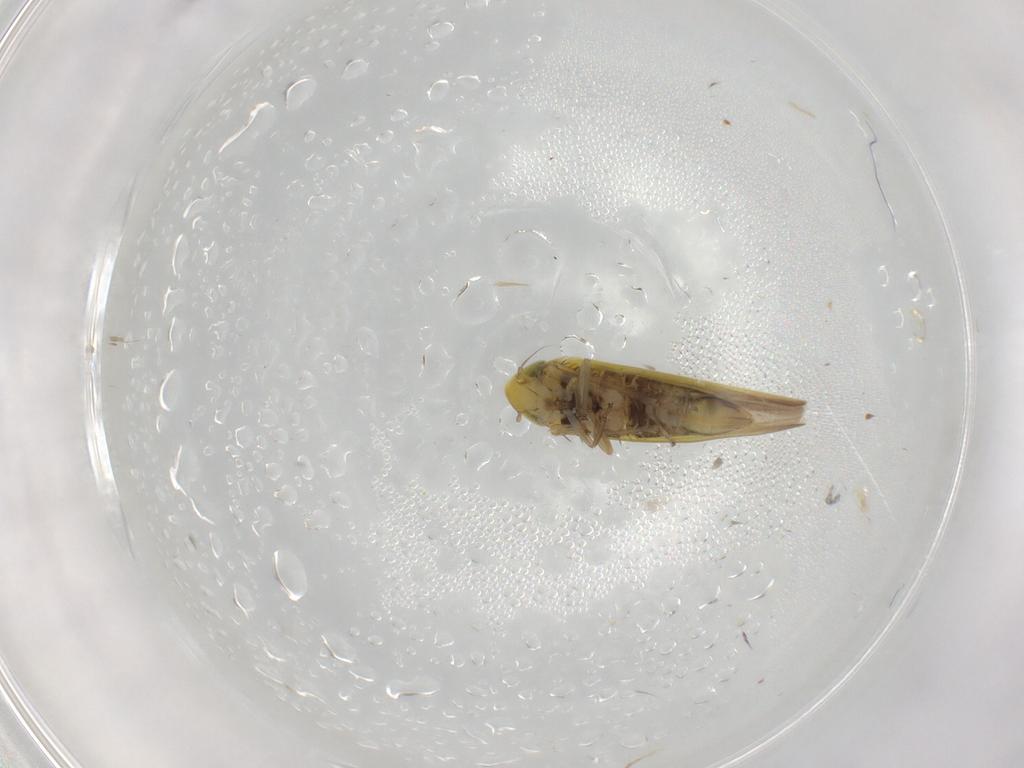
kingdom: Animalia
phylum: Arthropoda
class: Insecta
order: Hemiptera
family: Cicadellidae
